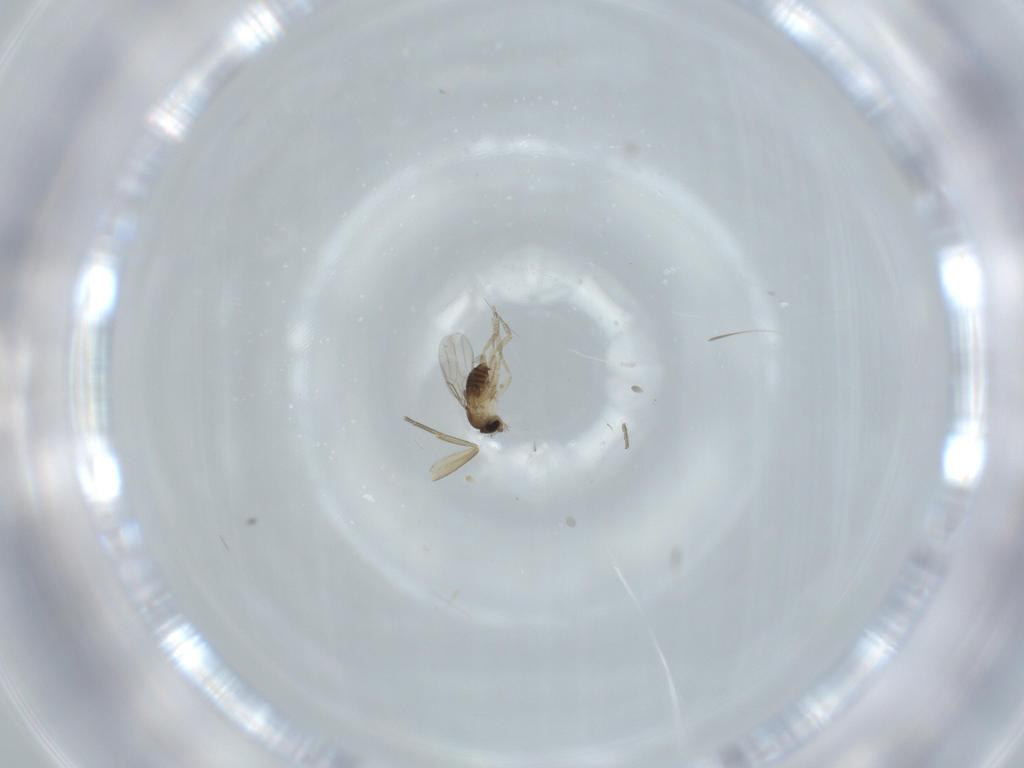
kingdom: Animalia
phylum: Arthropoda
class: Insecta
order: Diptera
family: Phoridae
